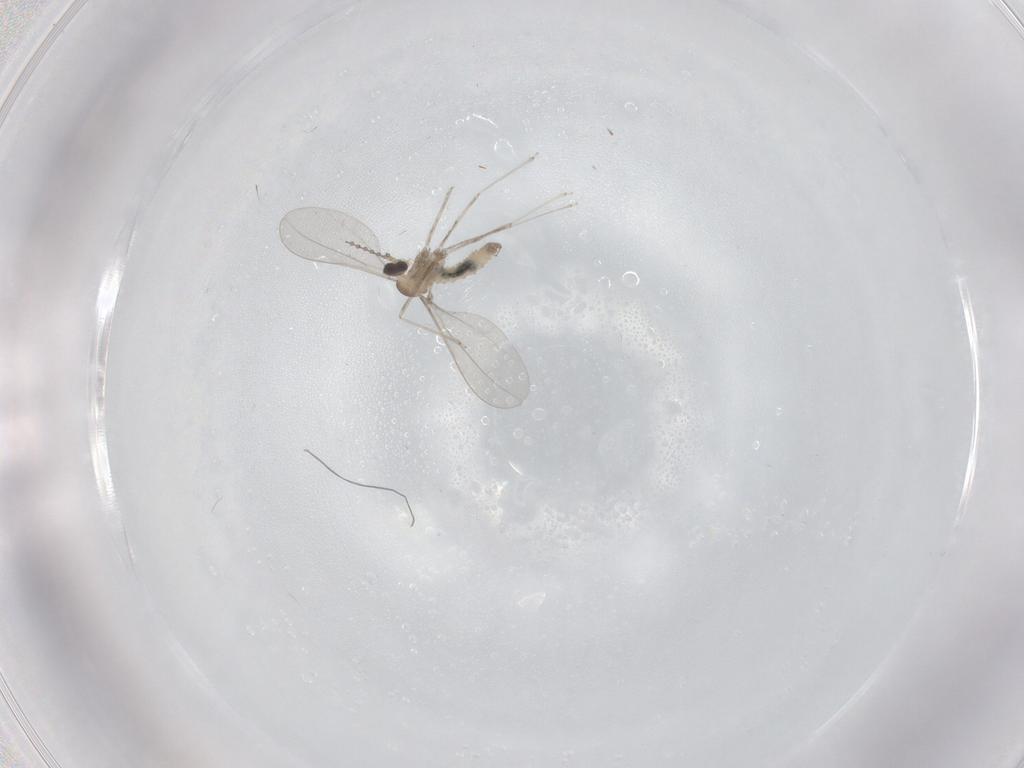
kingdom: Animalia
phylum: Arthropoda
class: Insecta
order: Diptera
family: Cecidomyiidae
